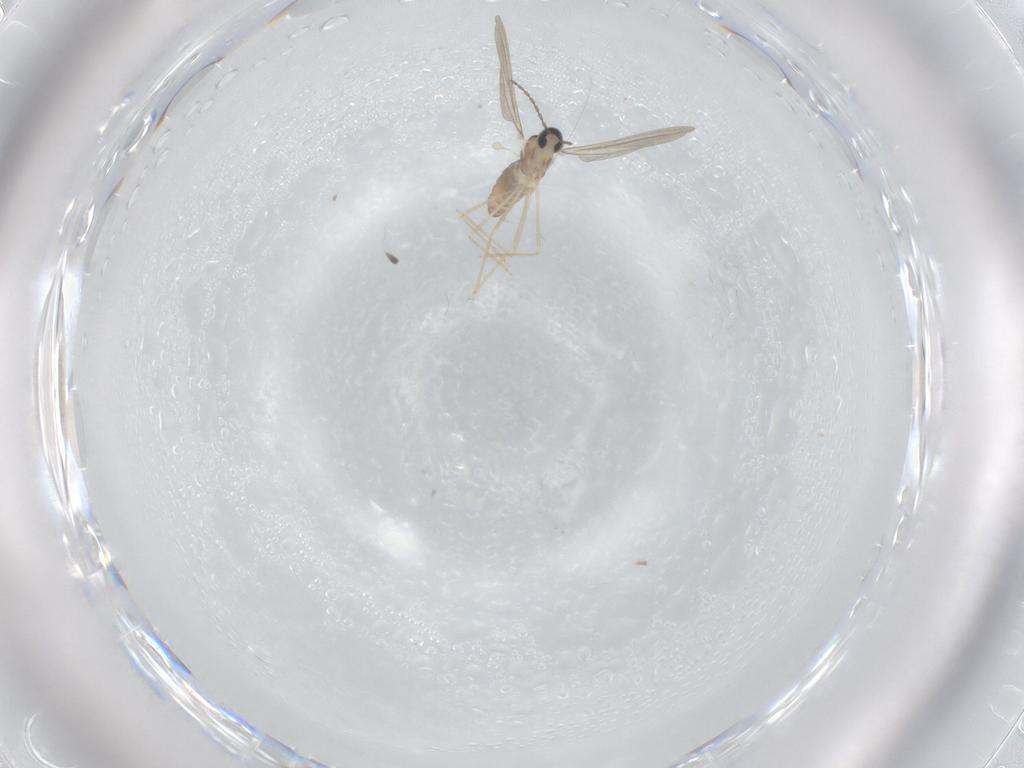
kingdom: Animalia
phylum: Arthropoda
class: Insecta
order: Diptera
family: Ceratopogonidae
